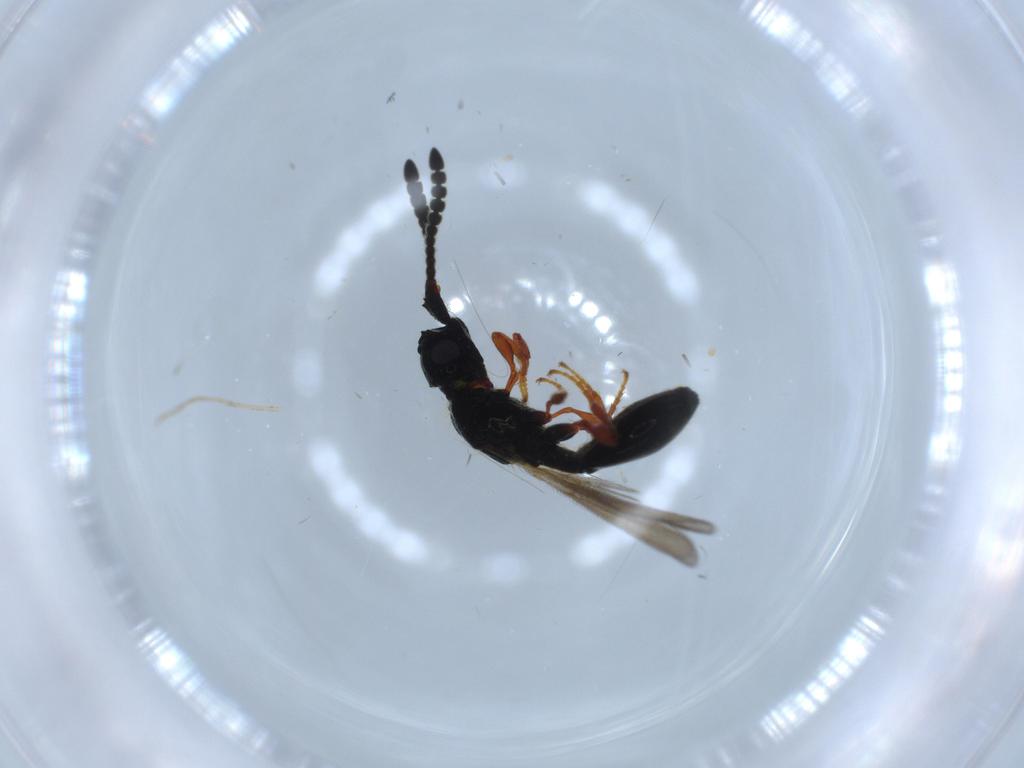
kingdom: Animalia
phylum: Arthropoda
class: Insecta
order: Hymenoptera
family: Diapriidae
